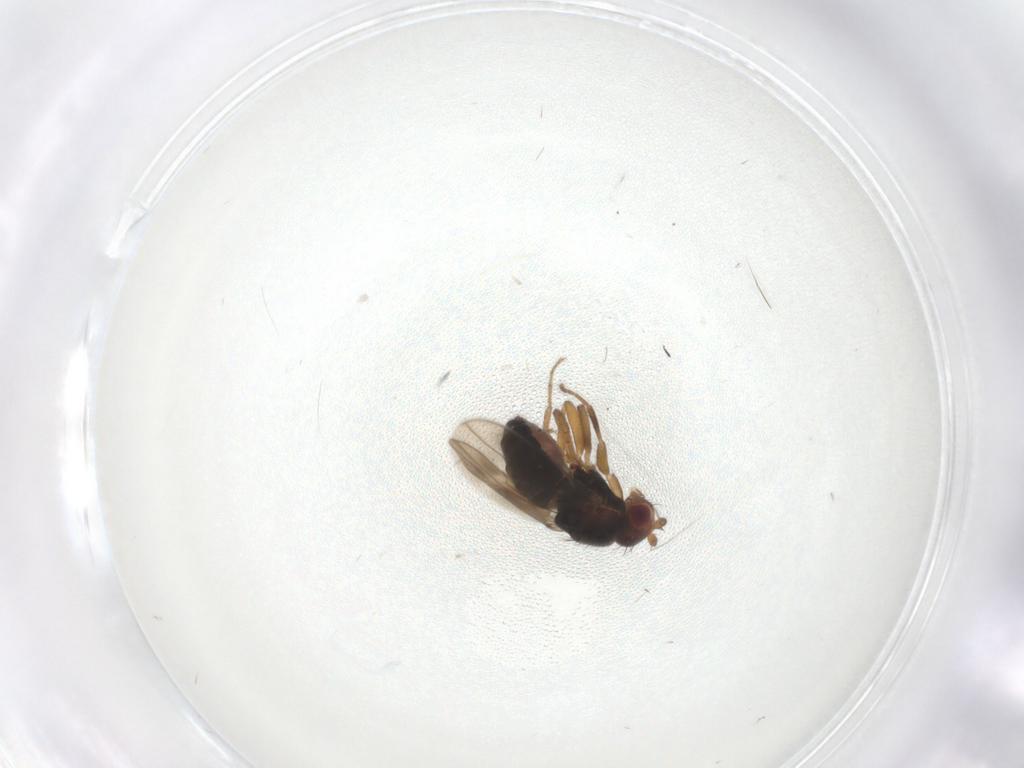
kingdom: Animalia
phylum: Arthropoda
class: Insecta
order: Diptera
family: Sphaeroceridae
